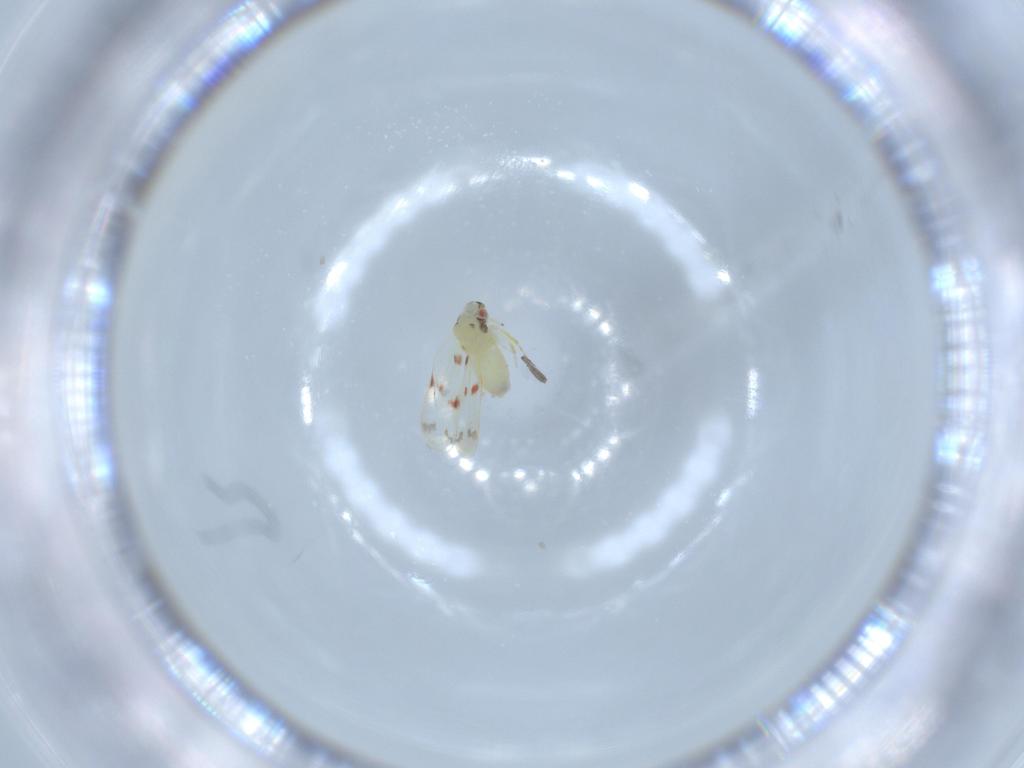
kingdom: Animalia
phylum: Arthropoda
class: Insecta
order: Hemiptera
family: Aleyrodidae
